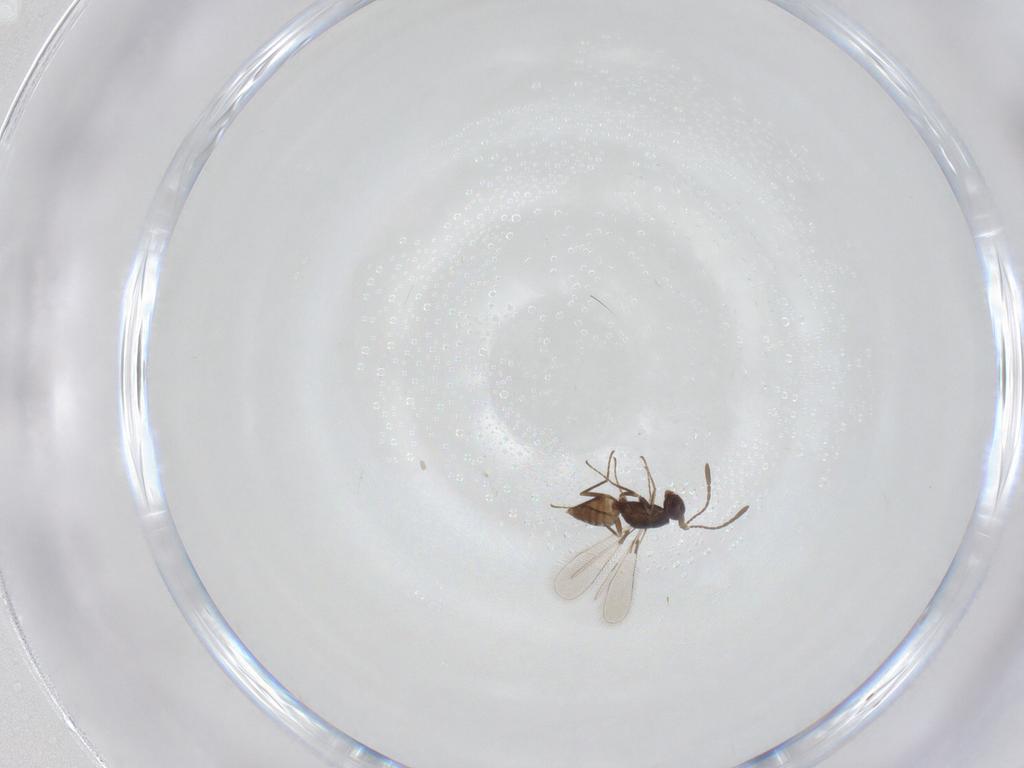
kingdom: Animalia
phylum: Arthropoda
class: Insecta
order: Hymenoptera
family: Mymaridae
